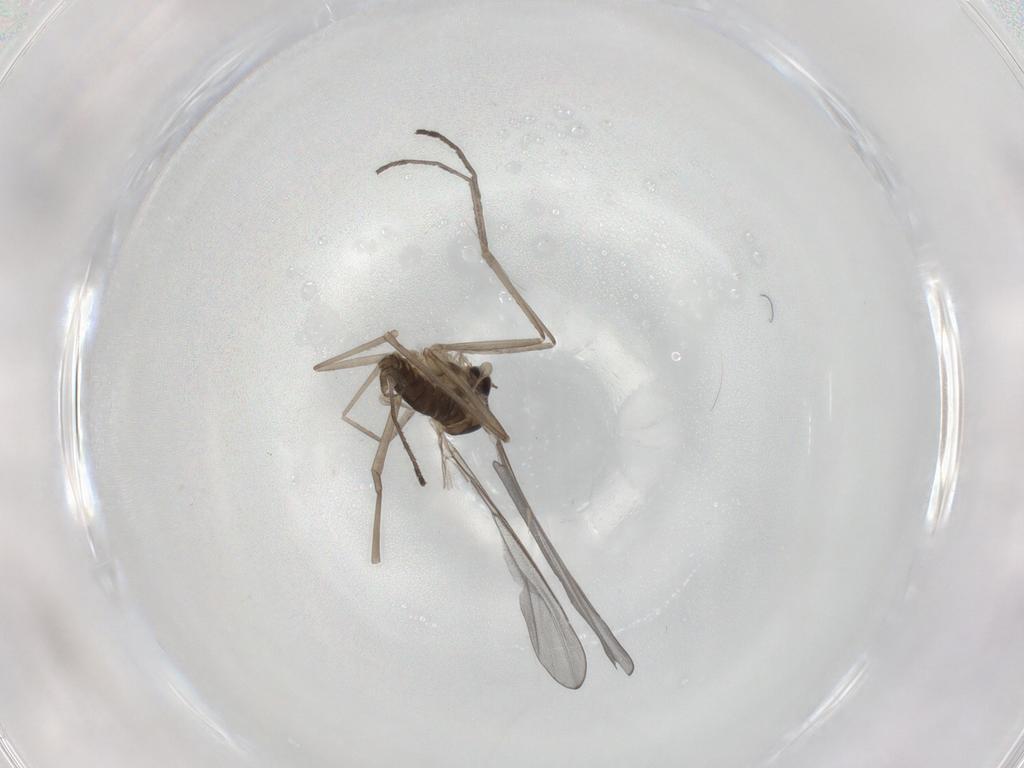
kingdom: Animalia
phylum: Arthropoda
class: Insecta
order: Diptera
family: Cecidomyiidae
